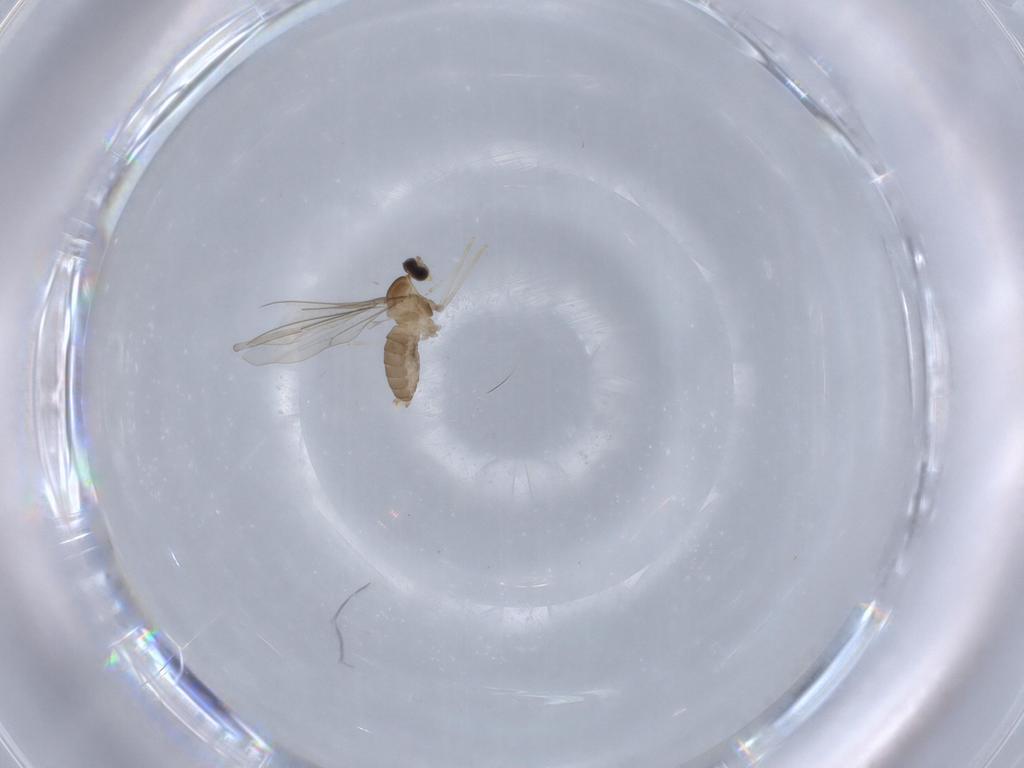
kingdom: Animalia
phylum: Arthropoda
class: Insecta
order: Diptera
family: Cecidomyiidae
